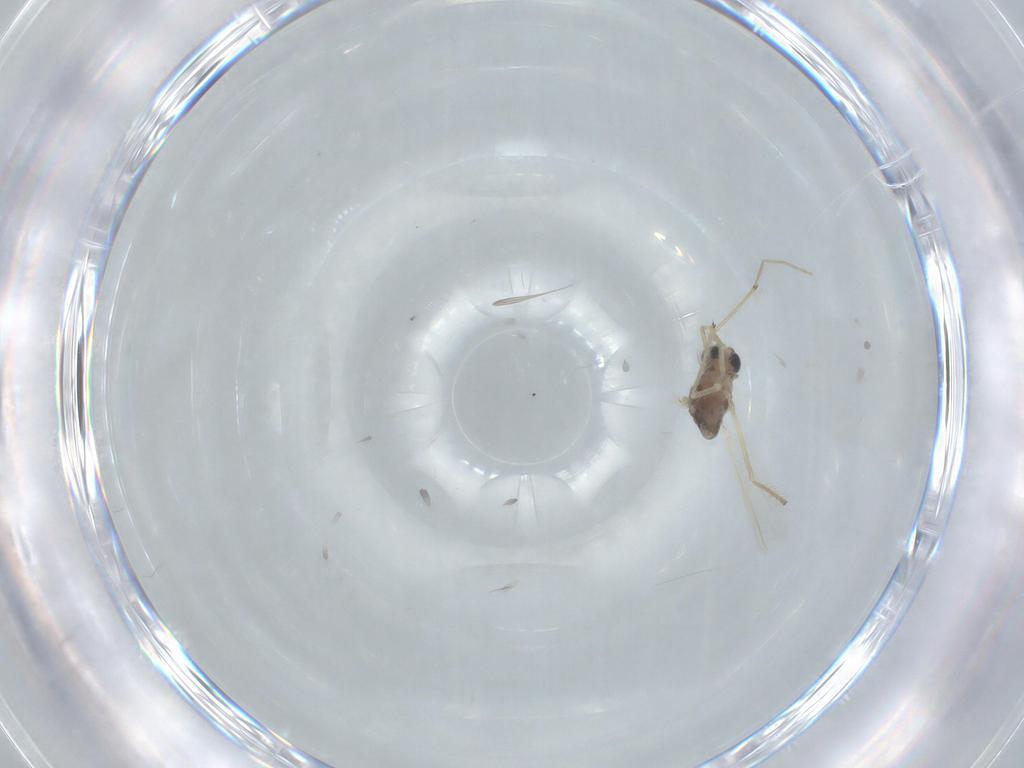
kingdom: Animalia
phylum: Arthropoda
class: Insecta
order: Diptera
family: Chironomidae
